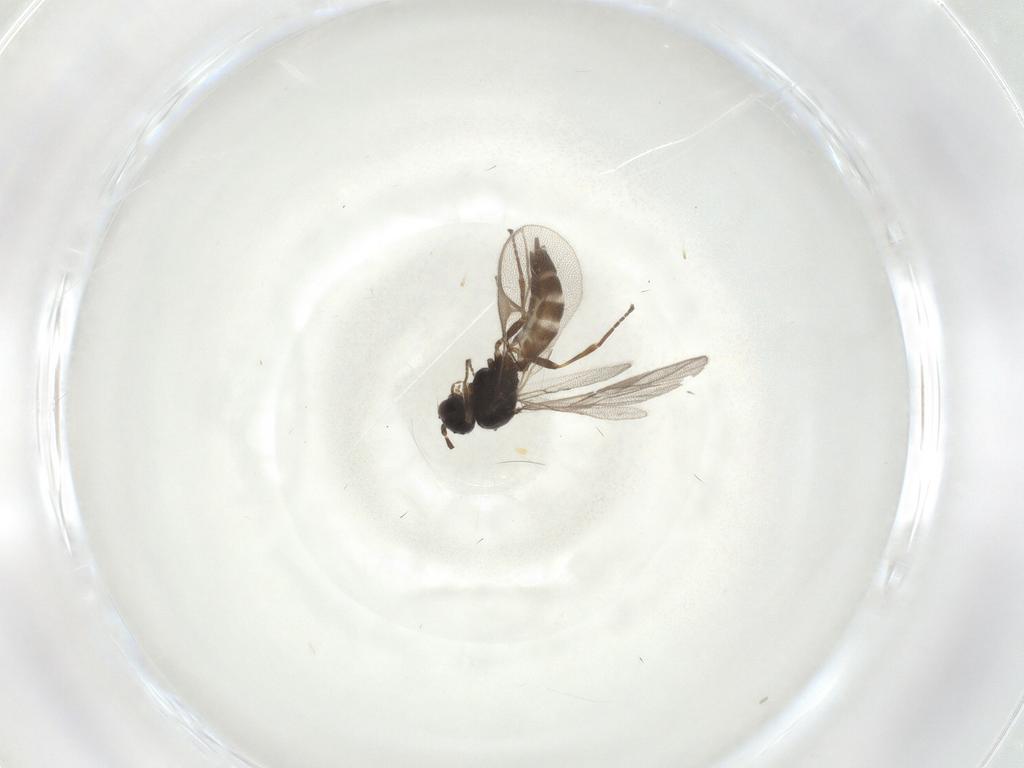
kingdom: Animalia
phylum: Arthropoda
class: Insecta
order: Hymenoptera
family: Braconidae
